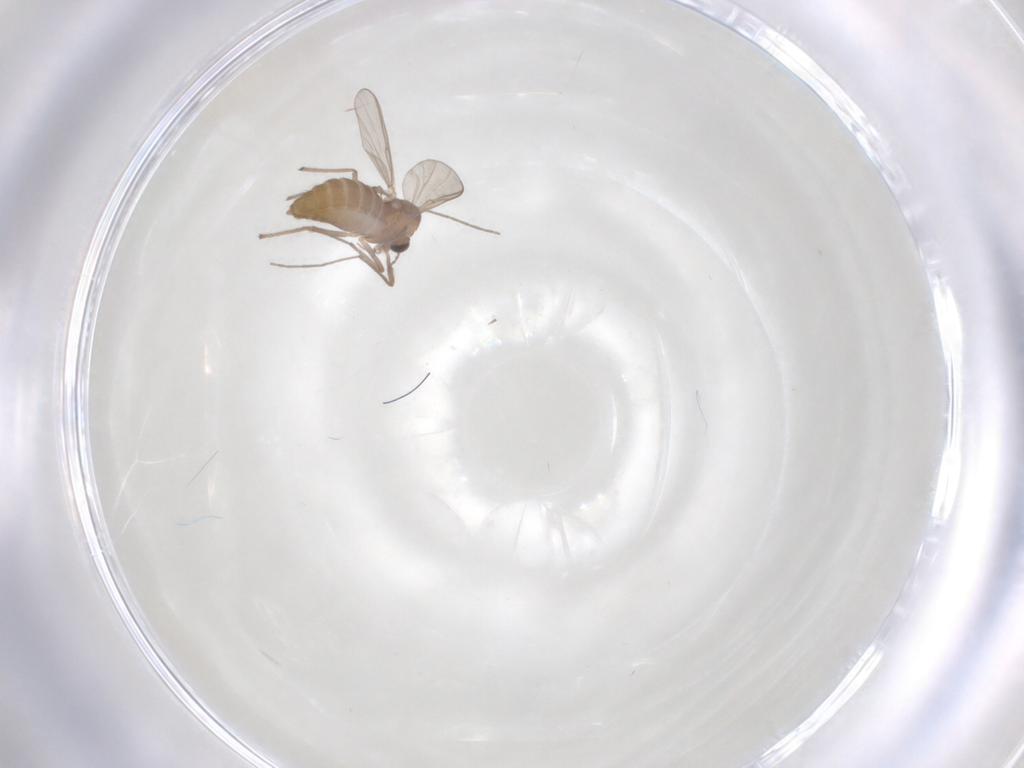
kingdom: Animalia
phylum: Arthropoda
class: Insecta
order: Diptera
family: Chironomidae
